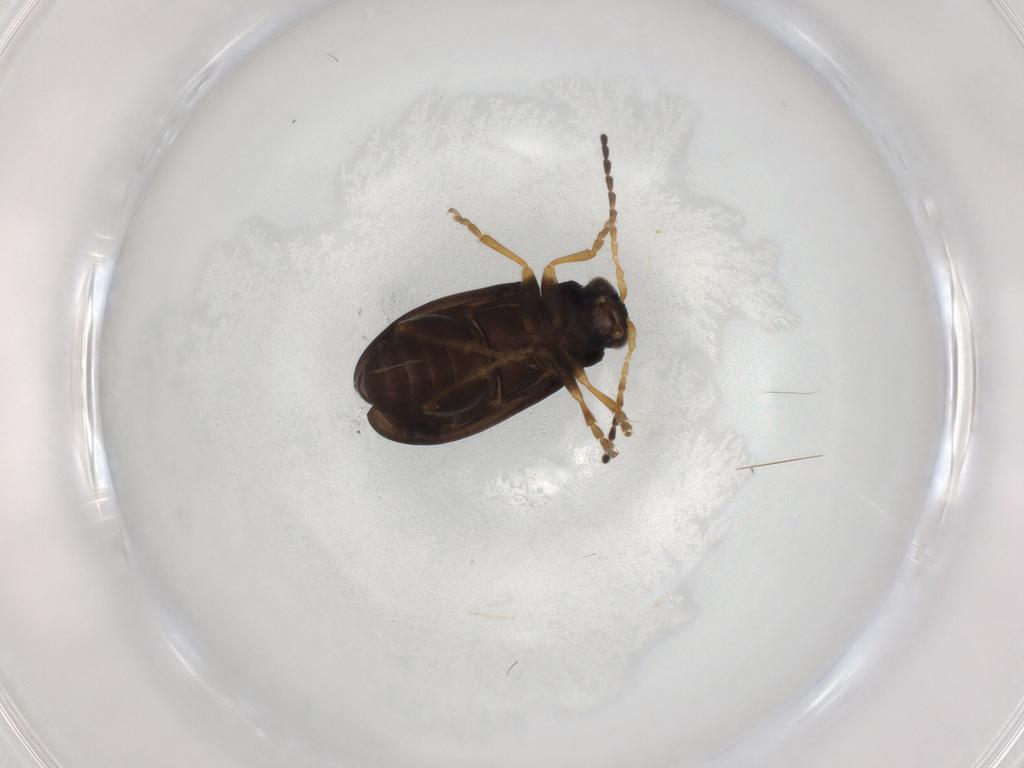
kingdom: Animalia
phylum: Arthropoda
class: Insecta
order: Coleoptera
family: Chrysomelidae
